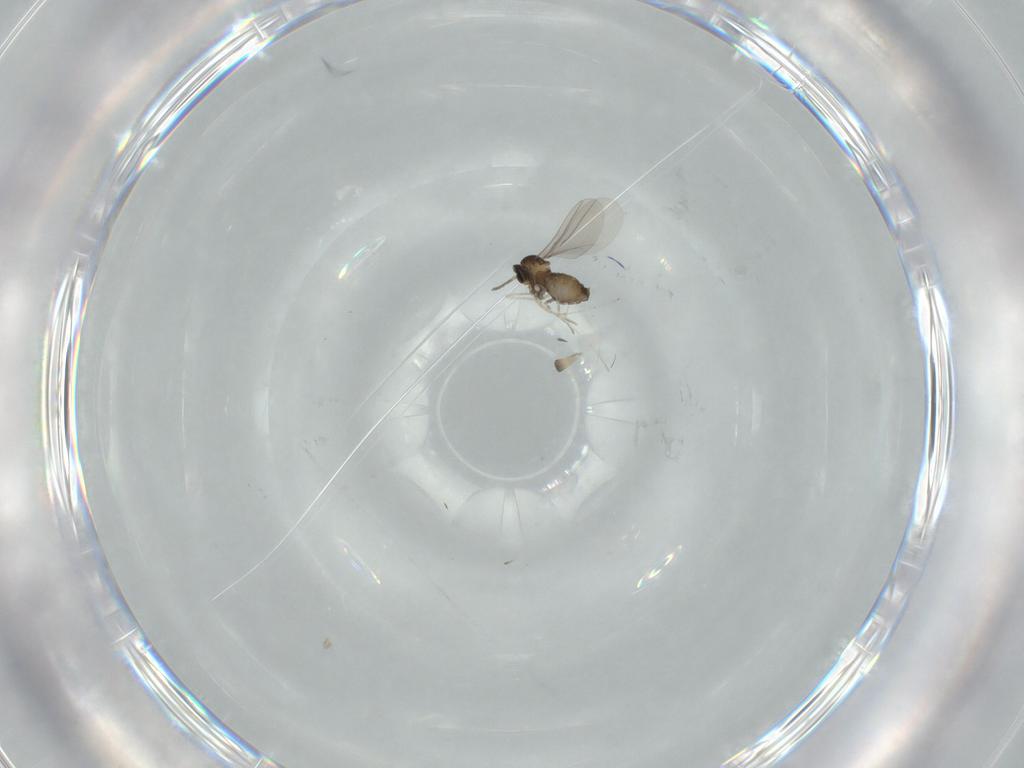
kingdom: Animalia
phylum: Arthropoda
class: Insecta
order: Diptera
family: Cecidomyiidae
